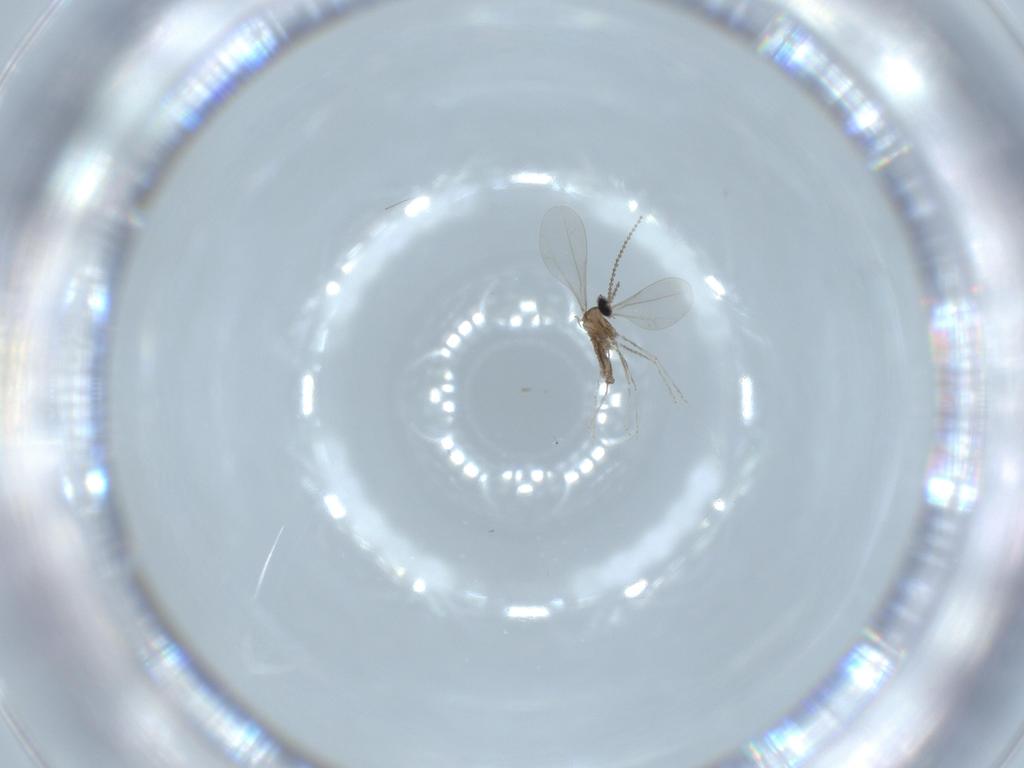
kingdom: Animalia
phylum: Arthropoda
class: Insecta
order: Diptera
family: Cecidomyiidae
